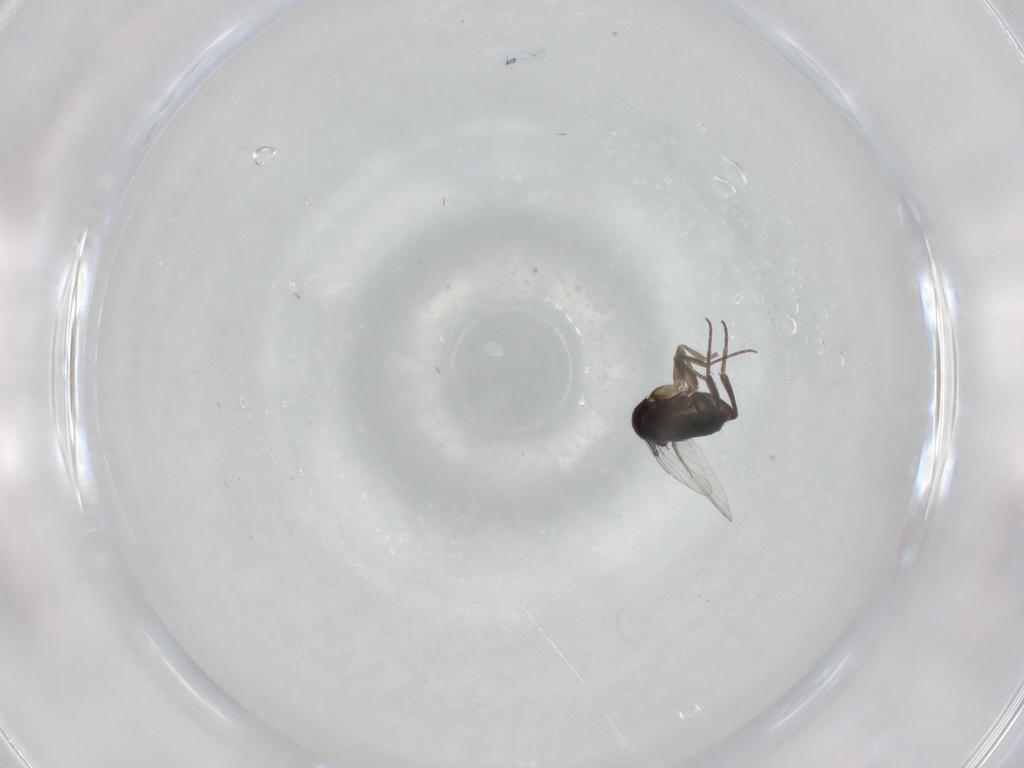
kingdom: Animalia
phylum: Arthropoda
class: Insecta
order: Diptera
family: Phoridae
